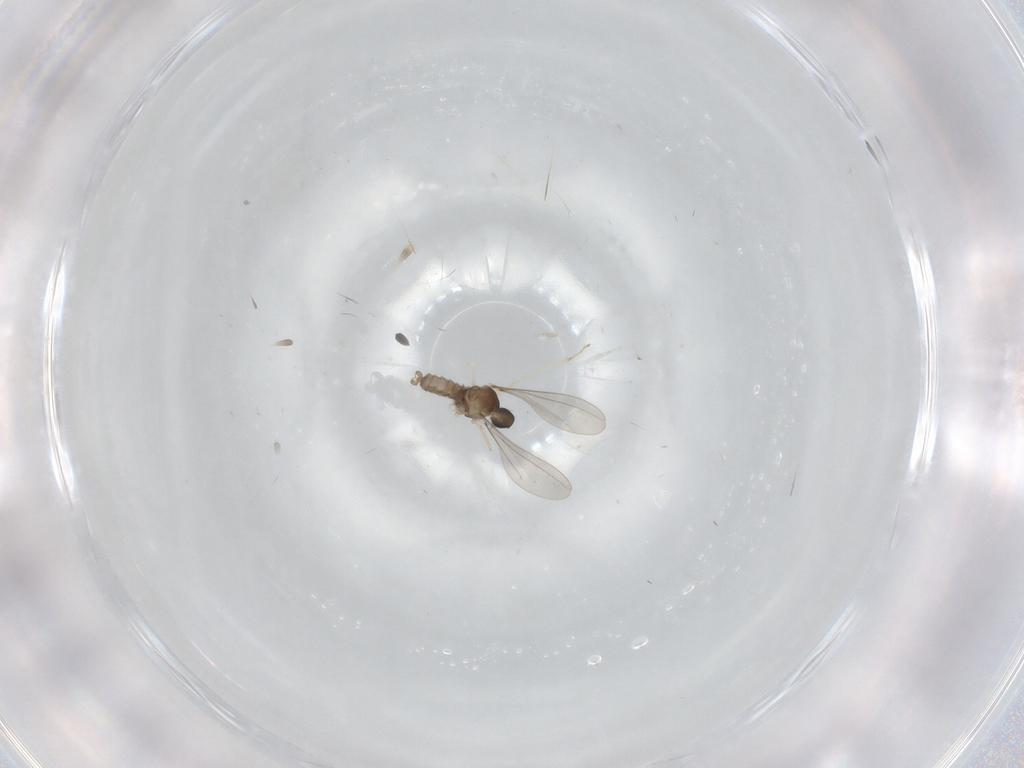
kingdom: Animalia
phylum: Arthropoda
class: Insecta
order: Diptera
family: Cecidomyiidae
